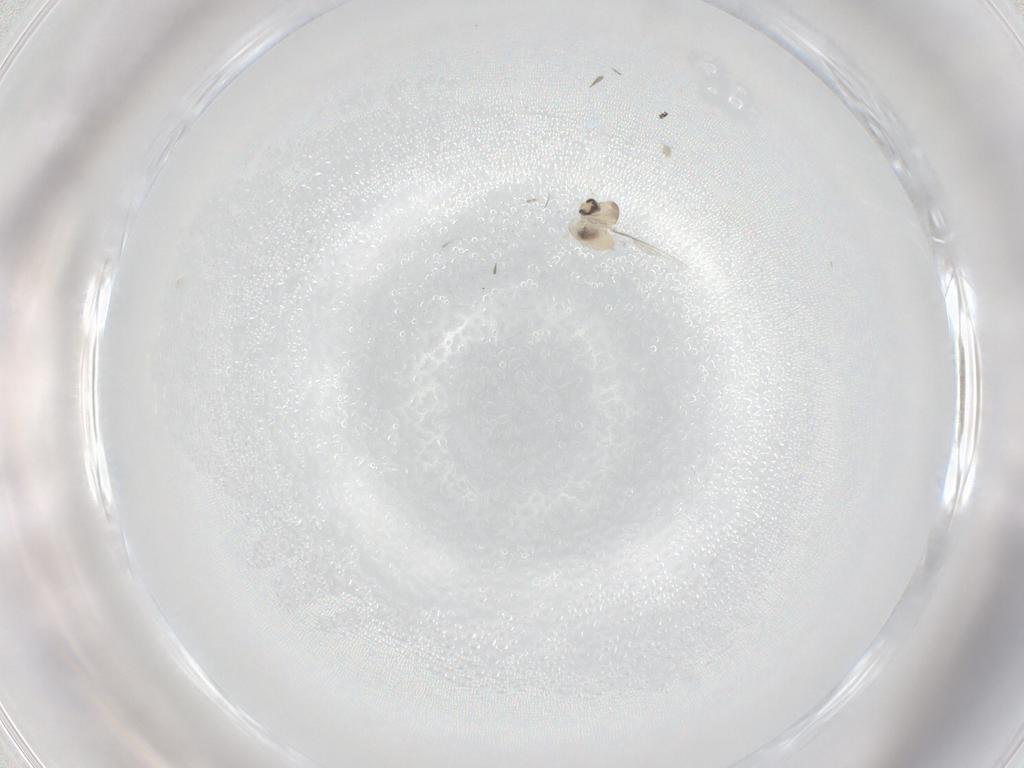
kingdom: Animalia
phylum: Arthropoda
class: Insecta
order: Diptera
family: Cecidomyiidae
